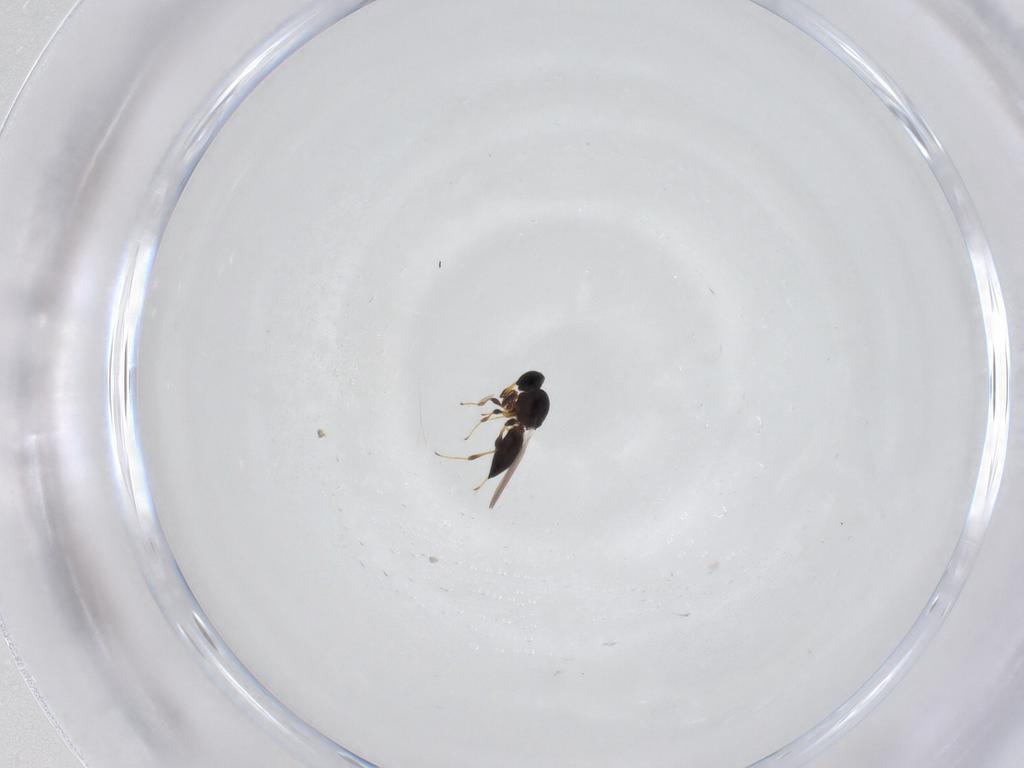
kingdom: Animalia
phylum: Arthropoda
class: Insecta
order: Hymenoptera
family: Platygastridae
